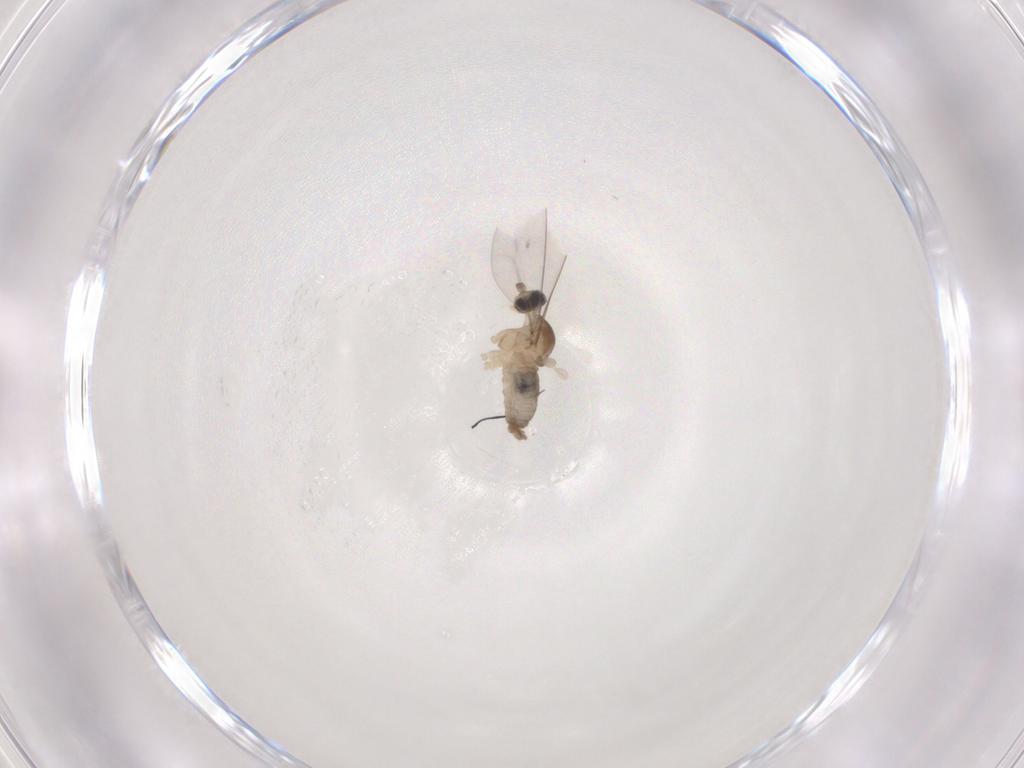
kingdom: Animalia
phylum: Arthropoda
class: Insecta
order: Diptera
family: Cecidomyiidae
